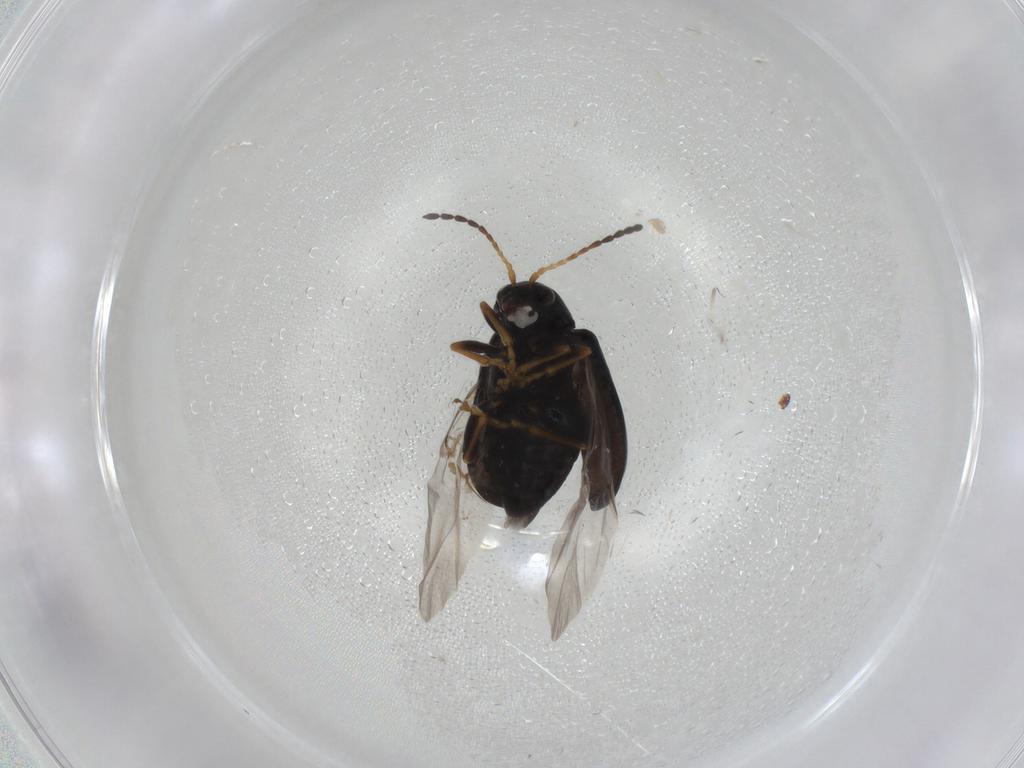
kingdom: Animalia
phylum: Arthropoda
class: Insecta
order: Coleoptera
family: Chrysomelidae
